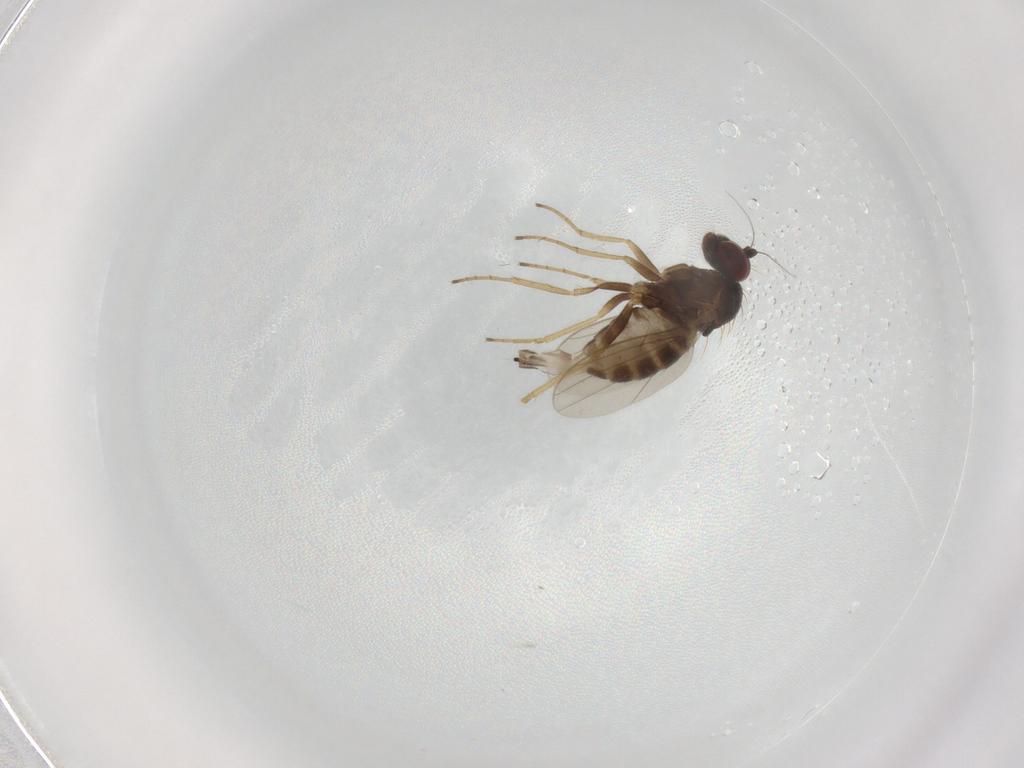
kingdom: Animalia
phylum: Arthropoda
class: Insecta
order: Diptera
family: Dolichopodidae
